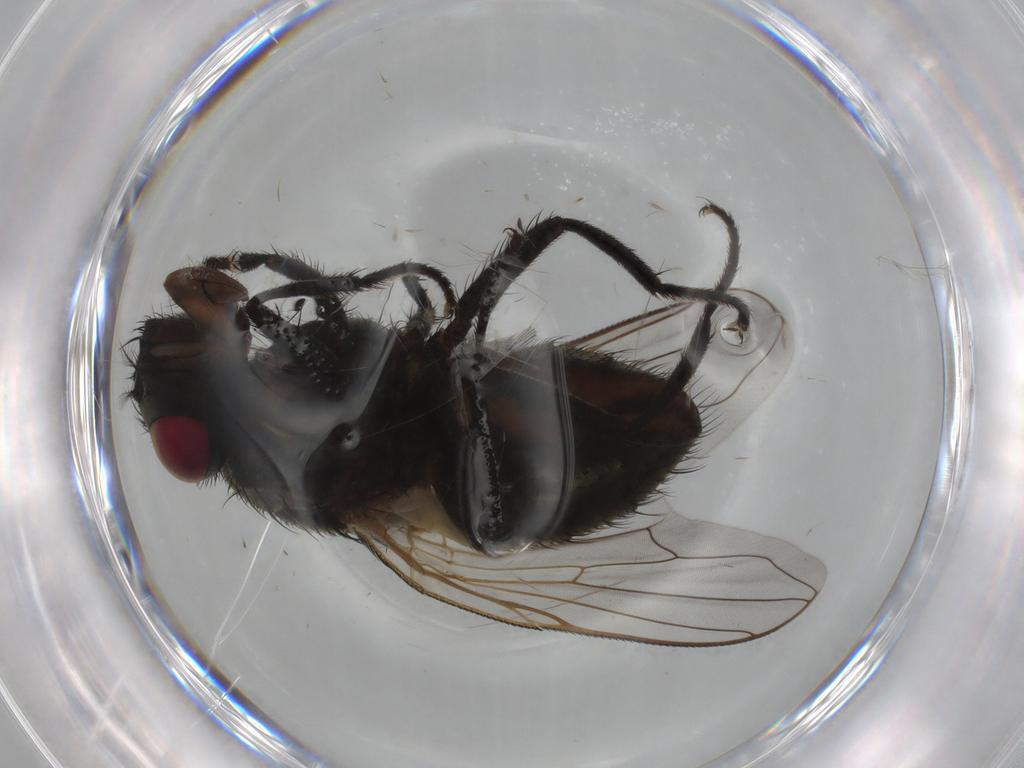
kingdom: Animalia
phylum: Arthropoda
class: Insecta
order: Diptera
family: Muscidae
